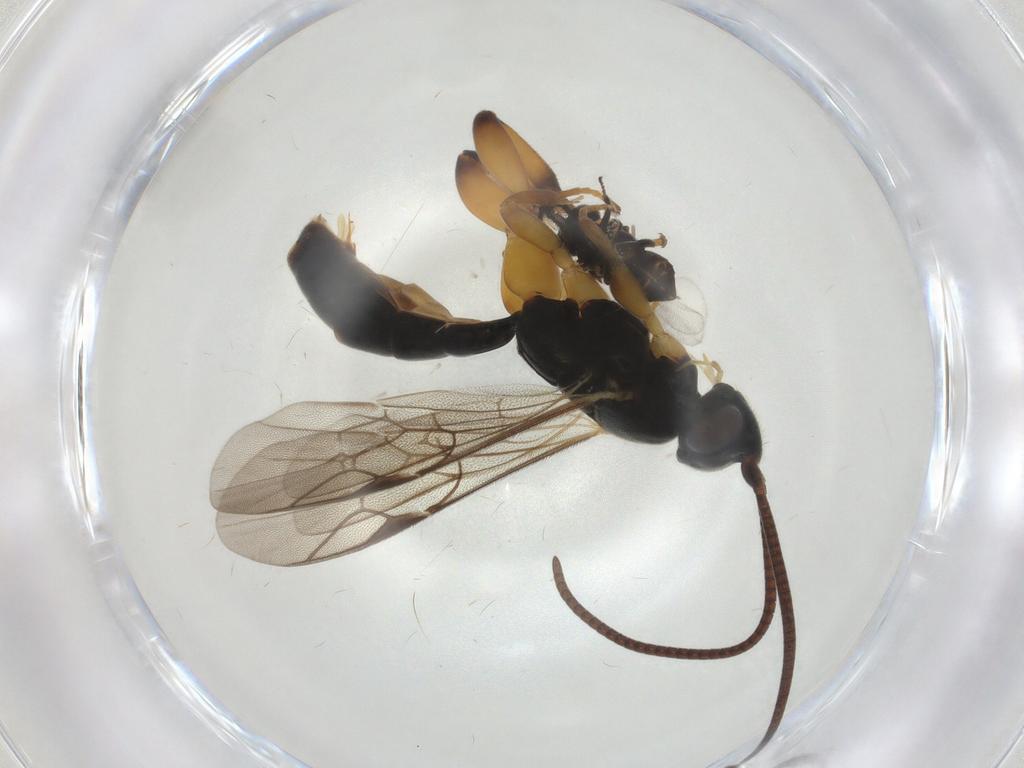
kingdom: Animalia
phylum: Arthropoda
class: Insecta
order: Hymenoptera
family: Ichneumonidae
